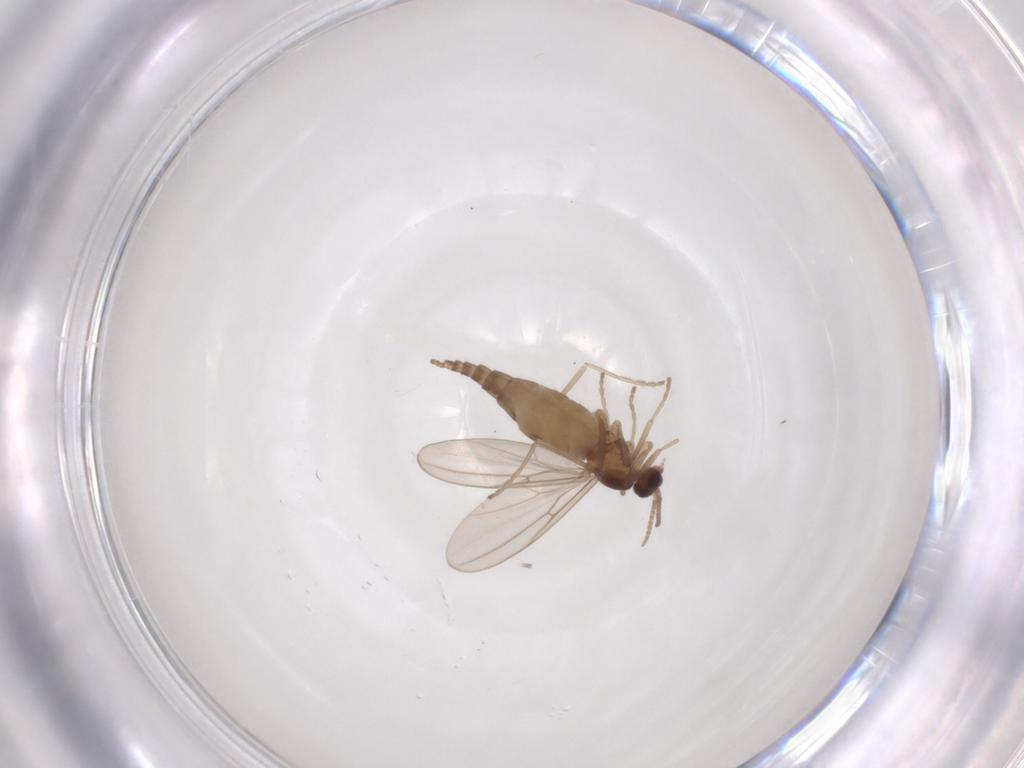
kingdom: Animalia
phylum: Arthropoda
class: Insecta
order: Diptera
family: Cecidomyiidae
